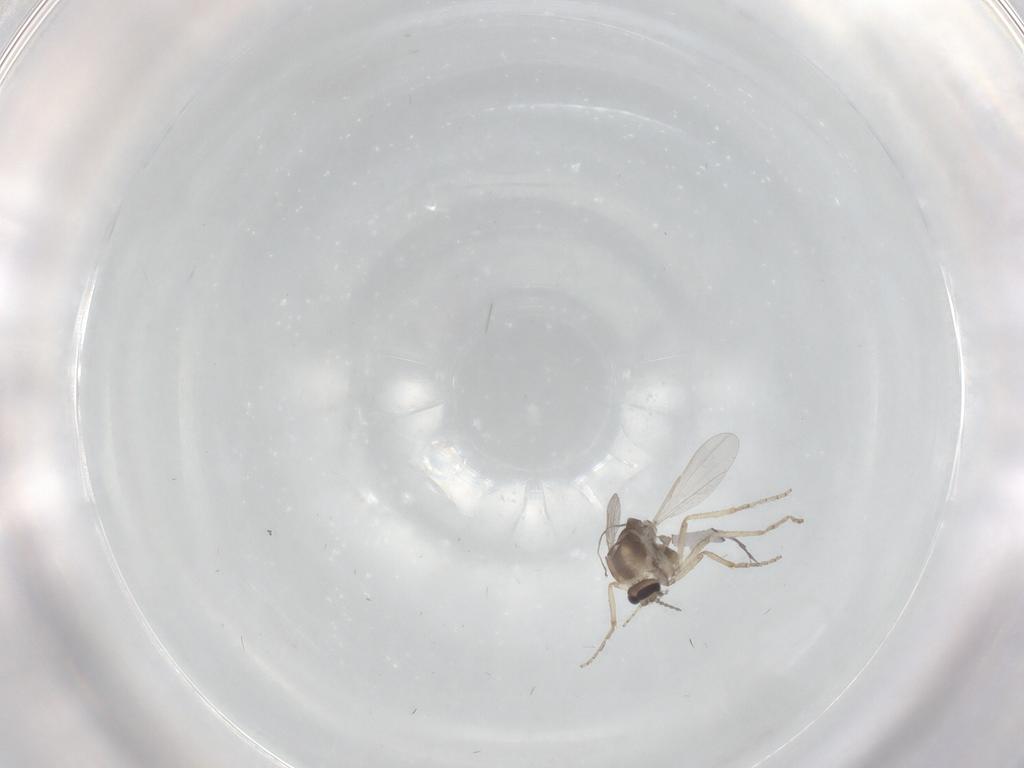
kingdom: Animalia
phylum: Arthropoda
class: Insecta
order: Diptera
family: Ceratopogonidae
